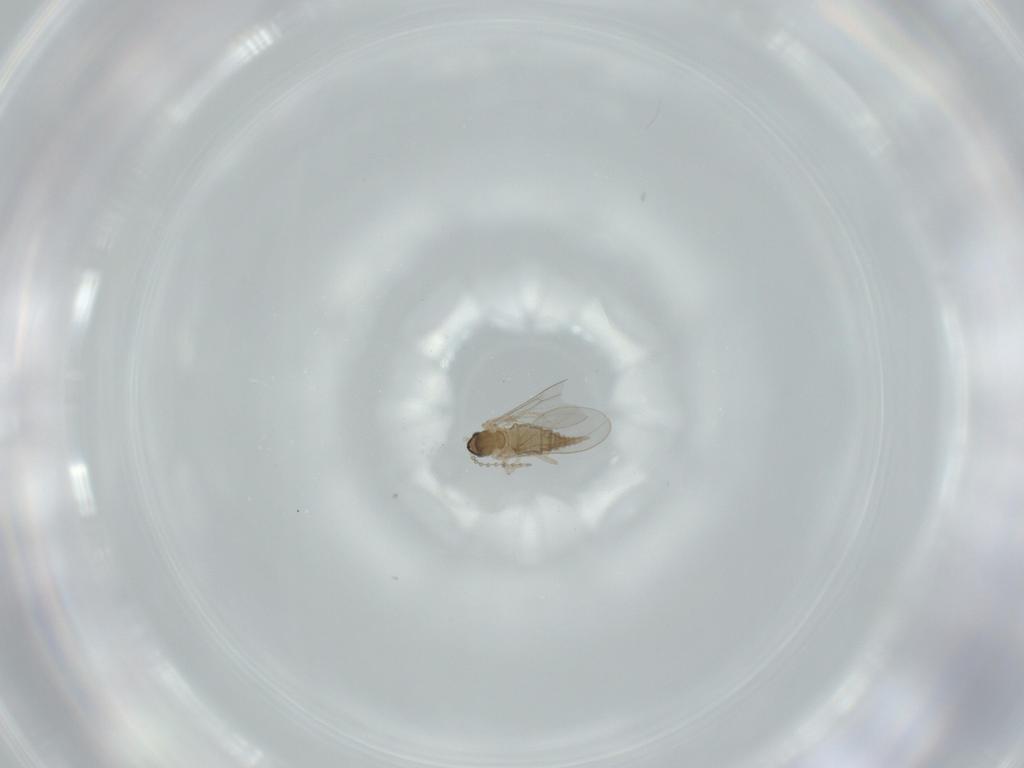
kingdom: Animalia
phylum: Arthropoda
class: Insecta
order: Diptera
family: Cecidomyiidae
